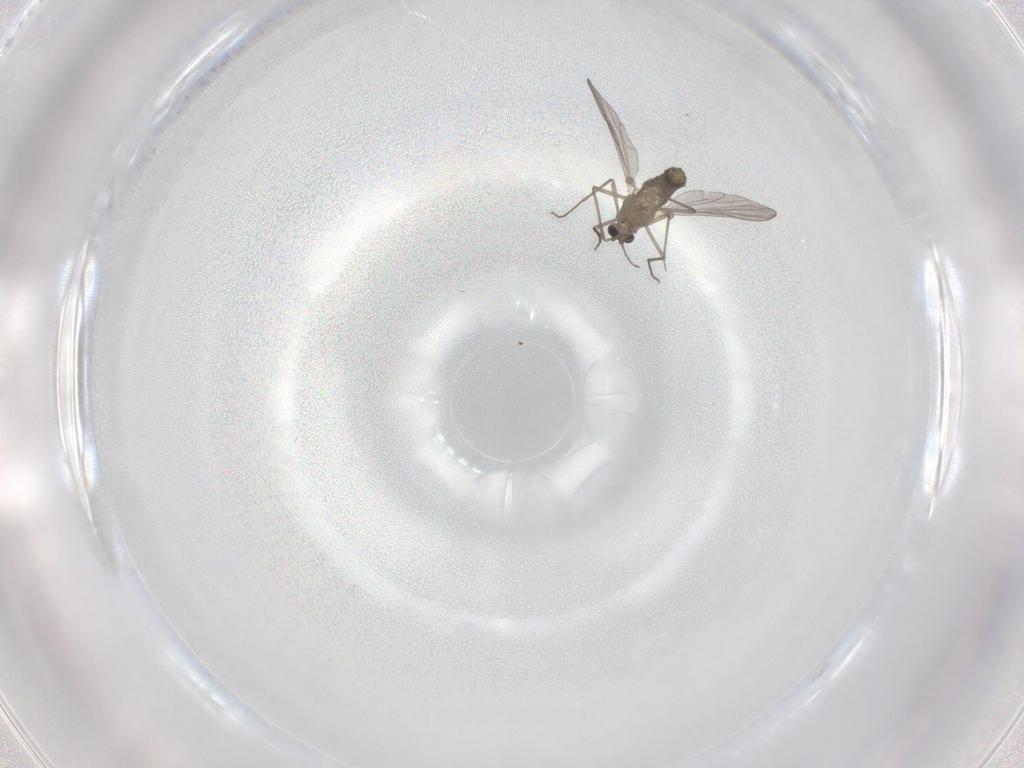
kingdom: Animalia
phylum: Arthropoda
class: Insecta
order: Diptera
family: Chironomidae
